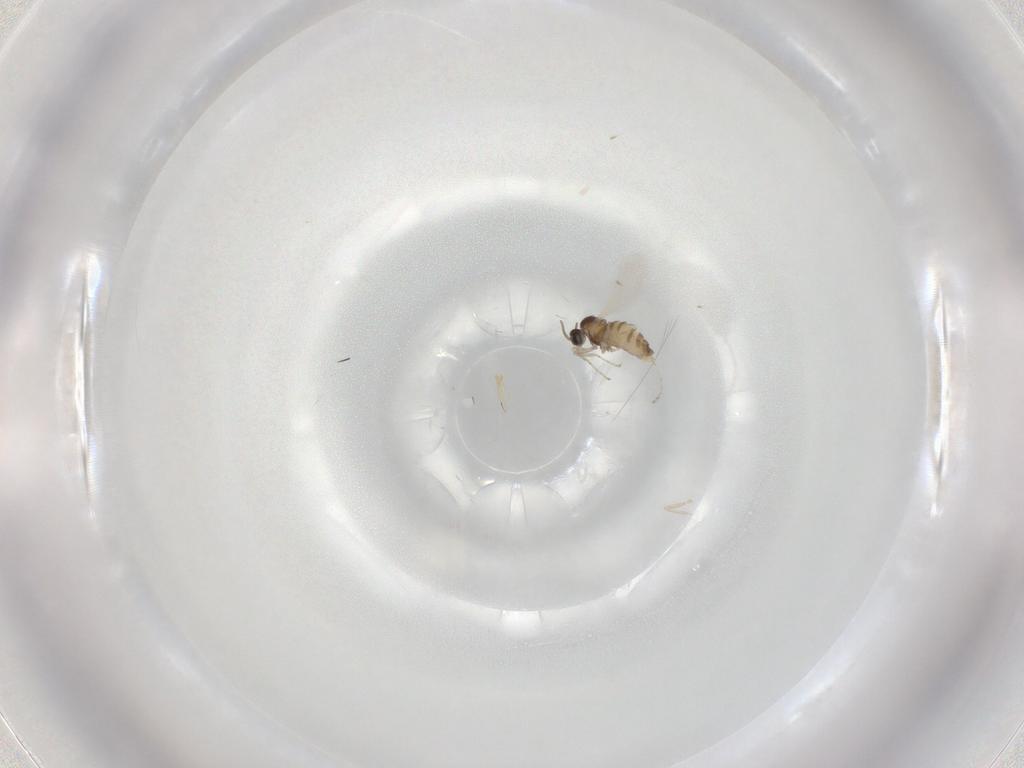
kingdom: Animalia
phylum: Arthropoda
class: Insecta
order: Diptera
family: Cecidomyiidae
